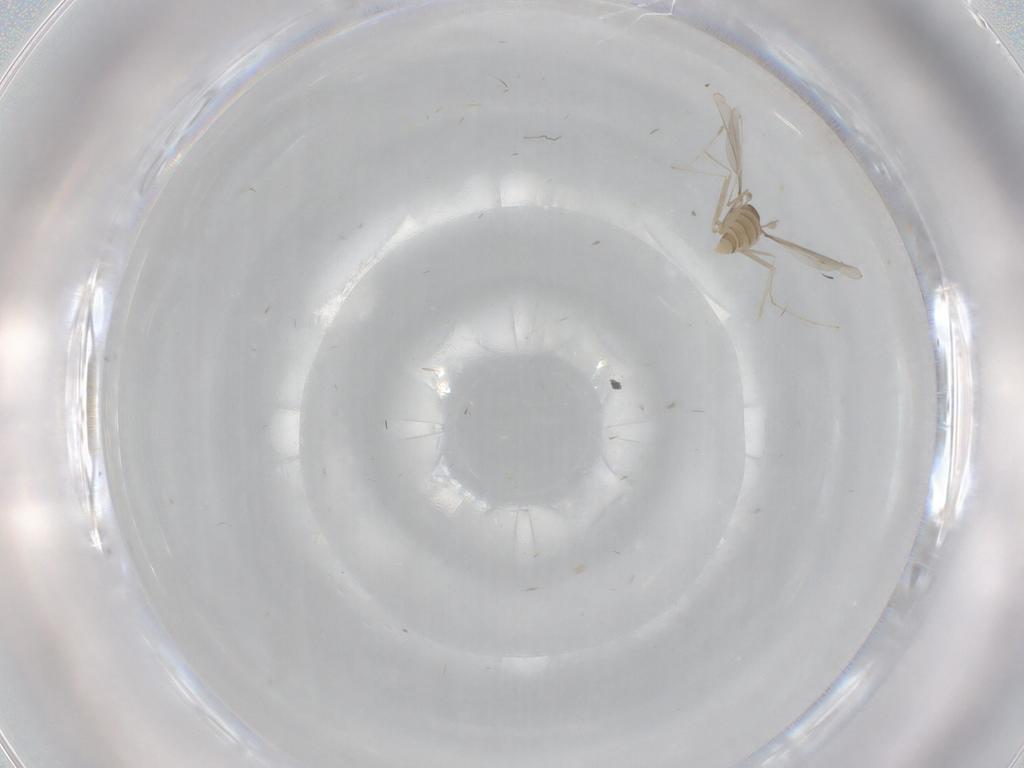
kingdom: Animalia
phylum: Arthropoda
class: Insecta
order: Diptera
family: Cecidomyiidae
